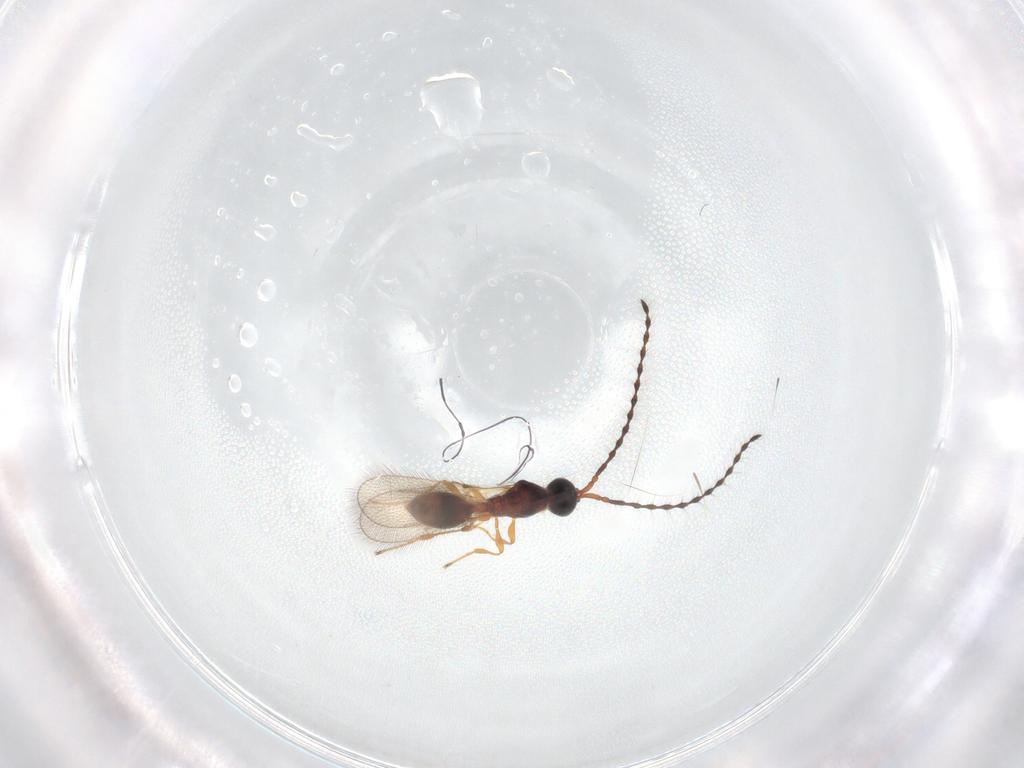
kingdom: Animalia
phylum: Arthropoda
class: Insecta
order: Hymenoptera
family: Diapriidae
